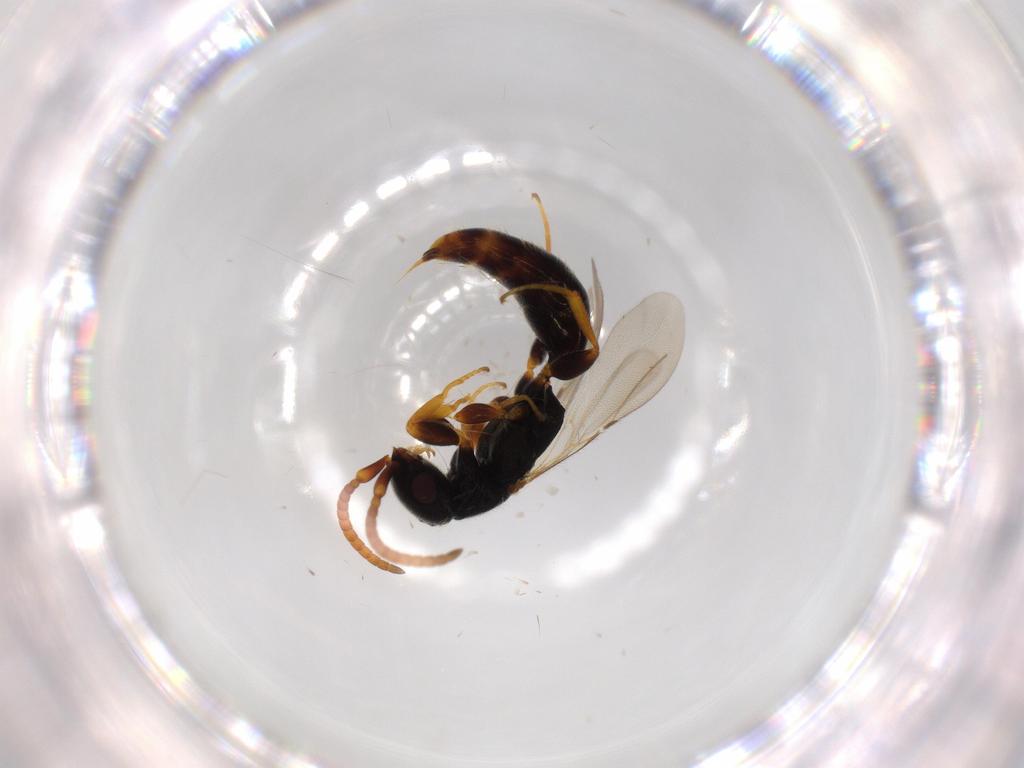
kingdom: Animalia
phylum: Arthropoda
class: Insecta
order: Hymenoptera
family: Bethylidae
